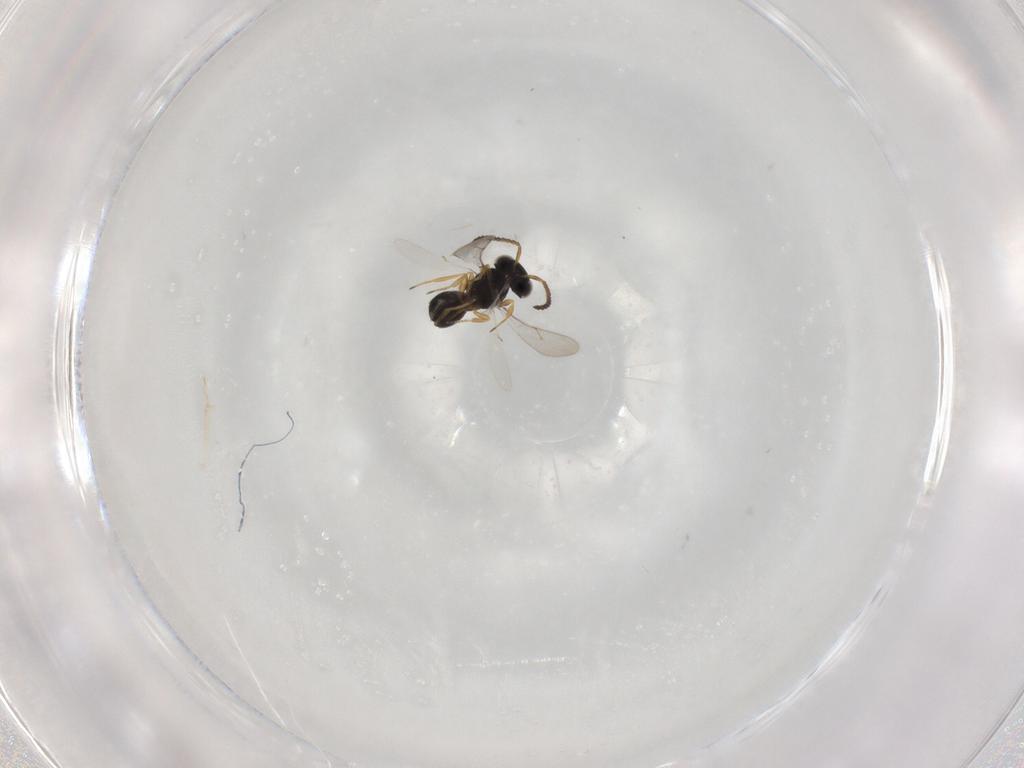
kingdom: Animalia
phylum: Arthropoda
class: Insecta
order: Hymenoptera
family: Scelionidae
